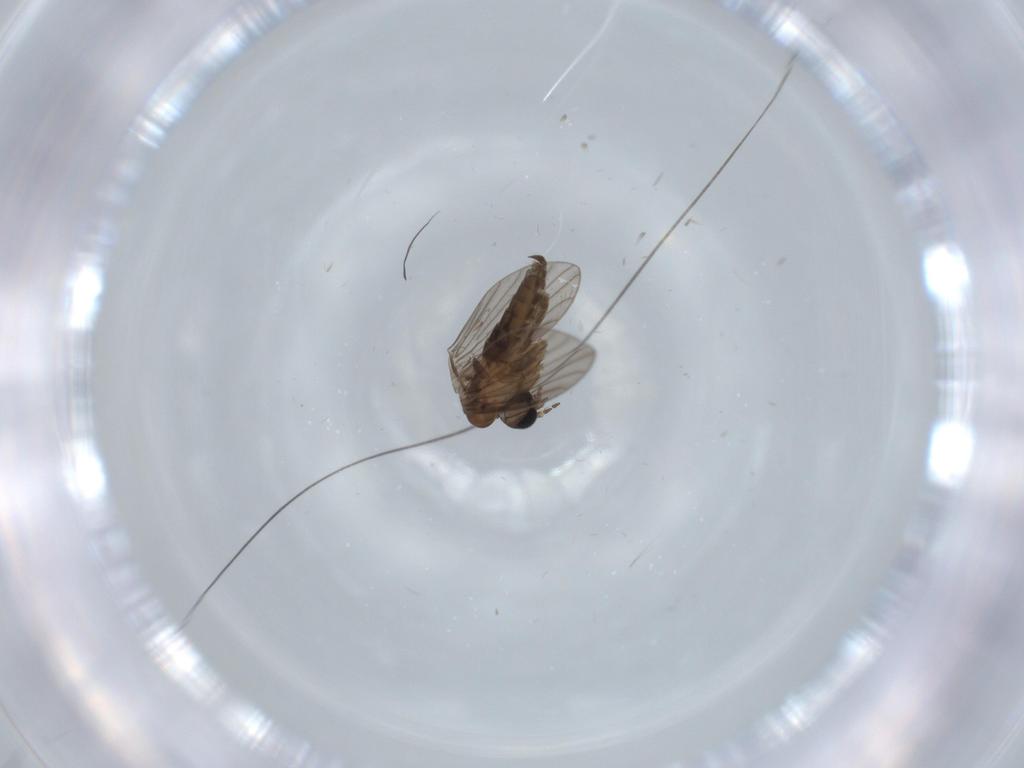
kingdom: Animalia
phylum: Arthropoda
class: Insecta
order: Diptera
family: Psychodidae
